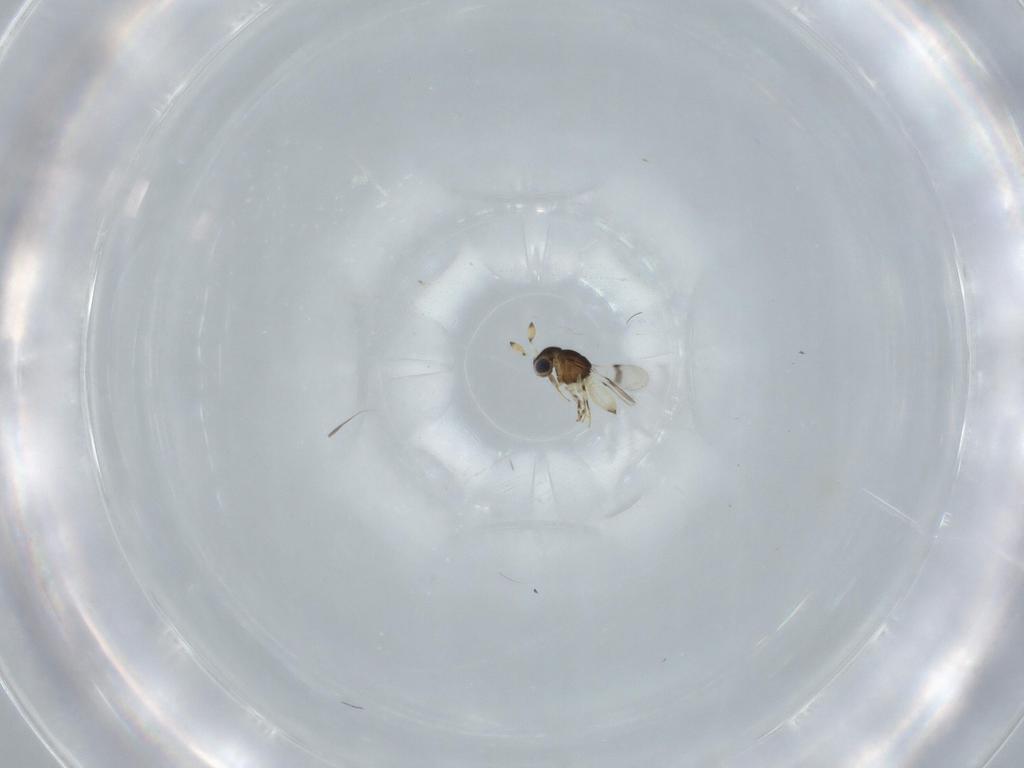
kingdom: Animalia
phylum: Arthropoda
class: Insecta
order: Hymenoptera
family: Scelionidae
